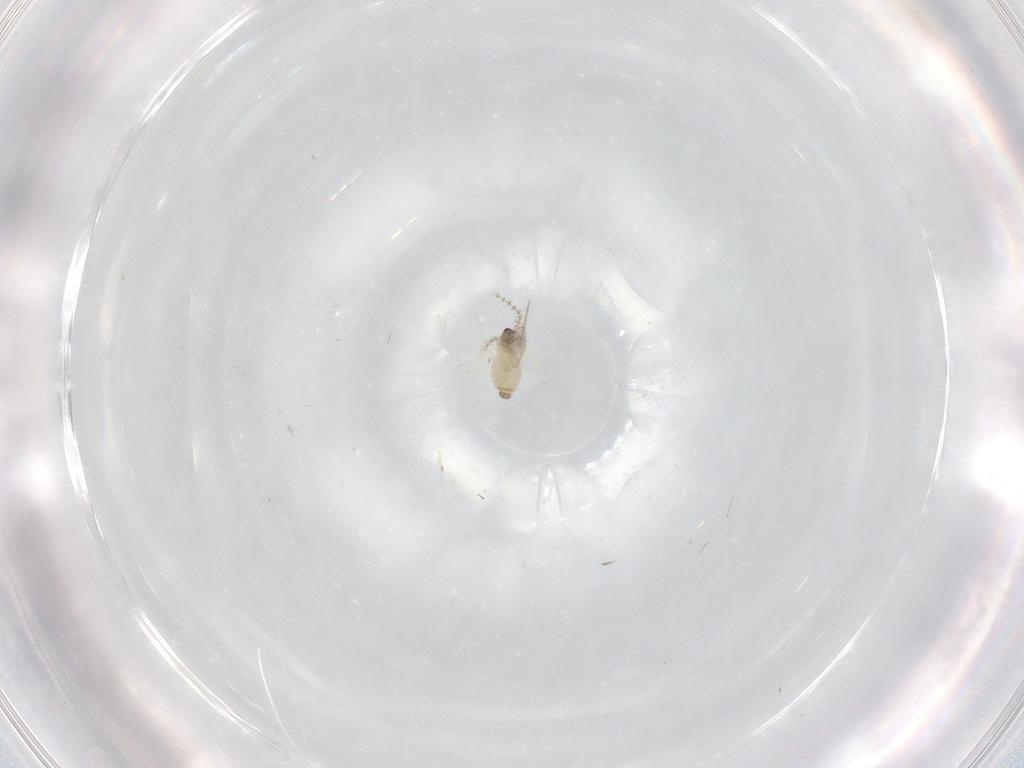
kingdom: Animalia
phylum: Arthropoda
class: Insecta
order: Diptera
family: Cecidomyiidae
